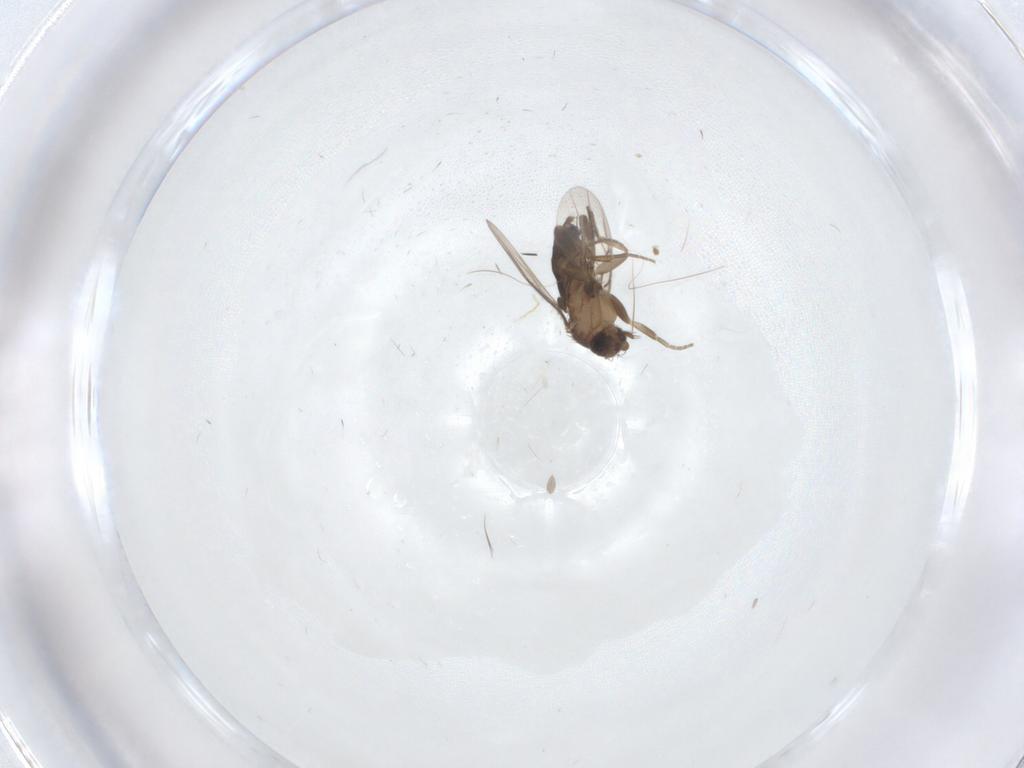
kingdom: Animalia
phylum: Arthropoda
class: Insecta
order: Diptera
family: Phoridae
